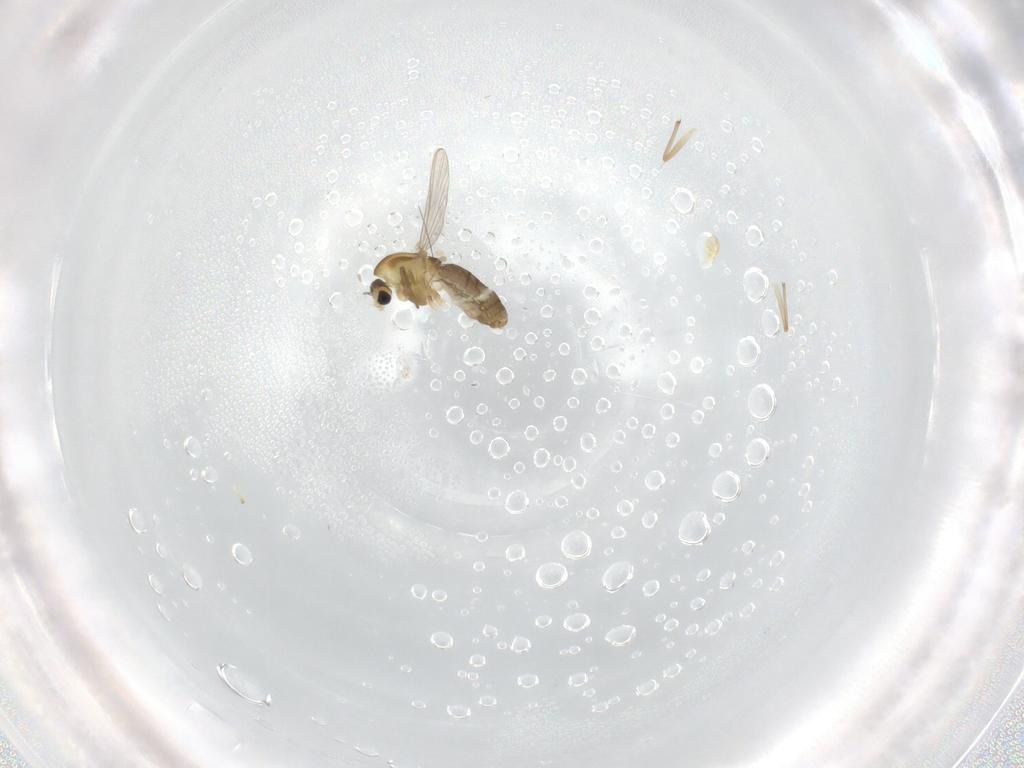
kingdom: Animalia
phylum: Arthropoda
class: Insecta
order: Diptera
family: Chironomidae
